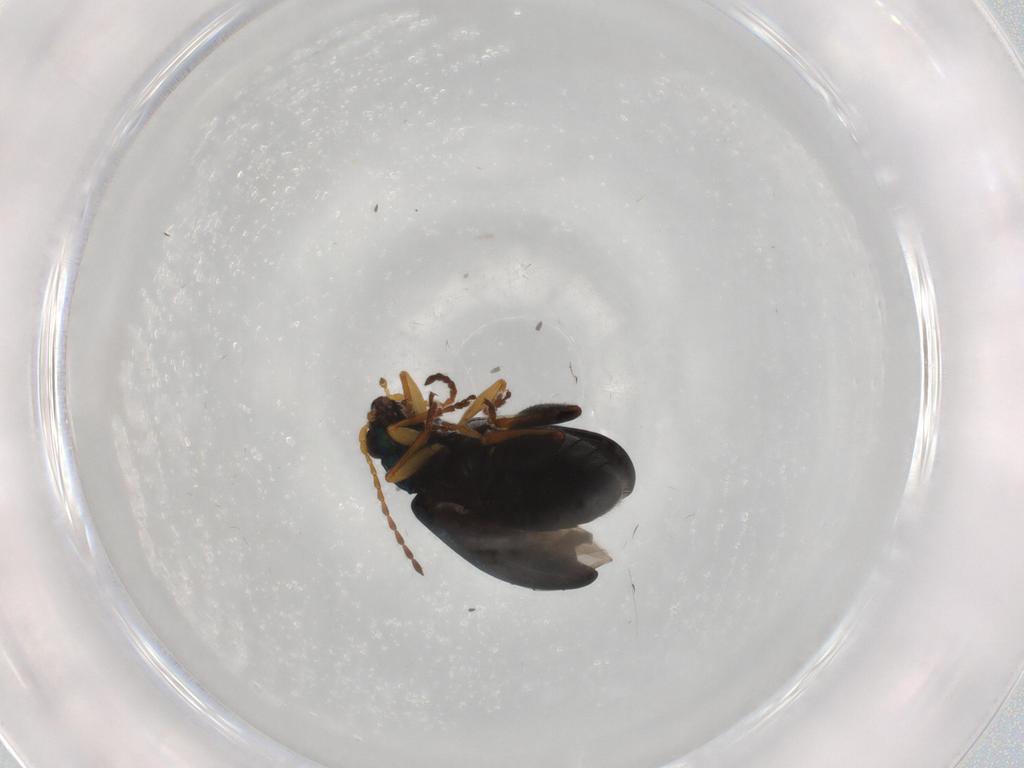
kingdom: Animalia
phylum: Arthropoda
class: Insecta
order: Coleoptera
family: Chrysomelidae
